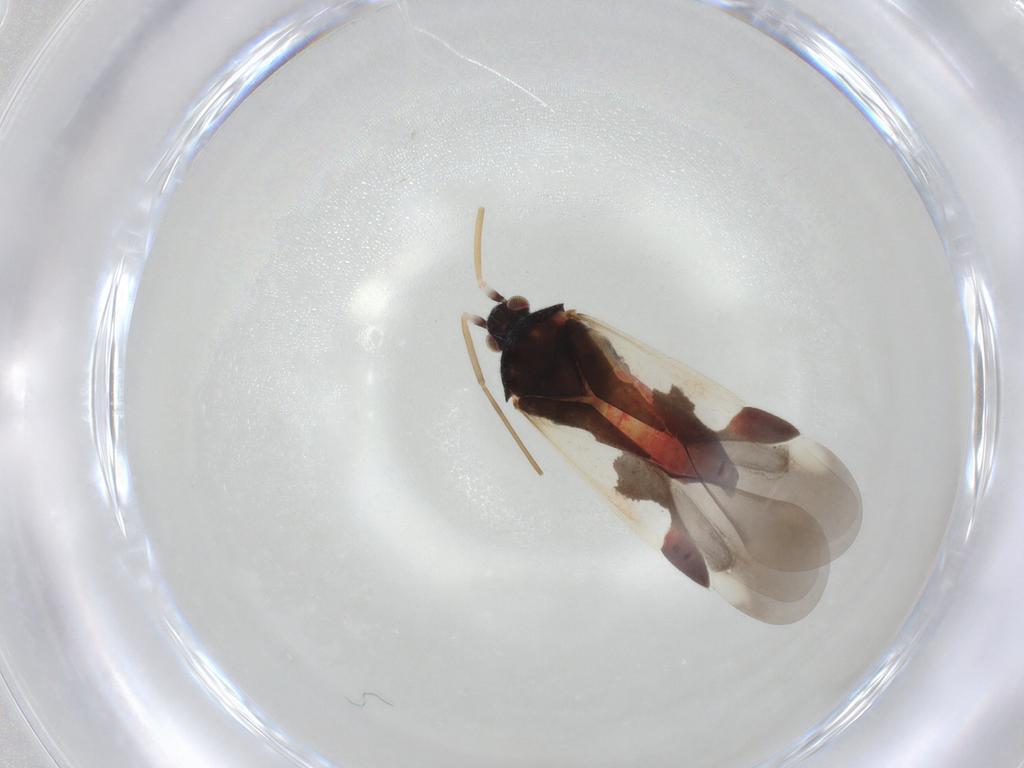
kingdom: Animalia
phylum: Arthropoda
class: Insecta
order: Hemiptera
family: Miridae
